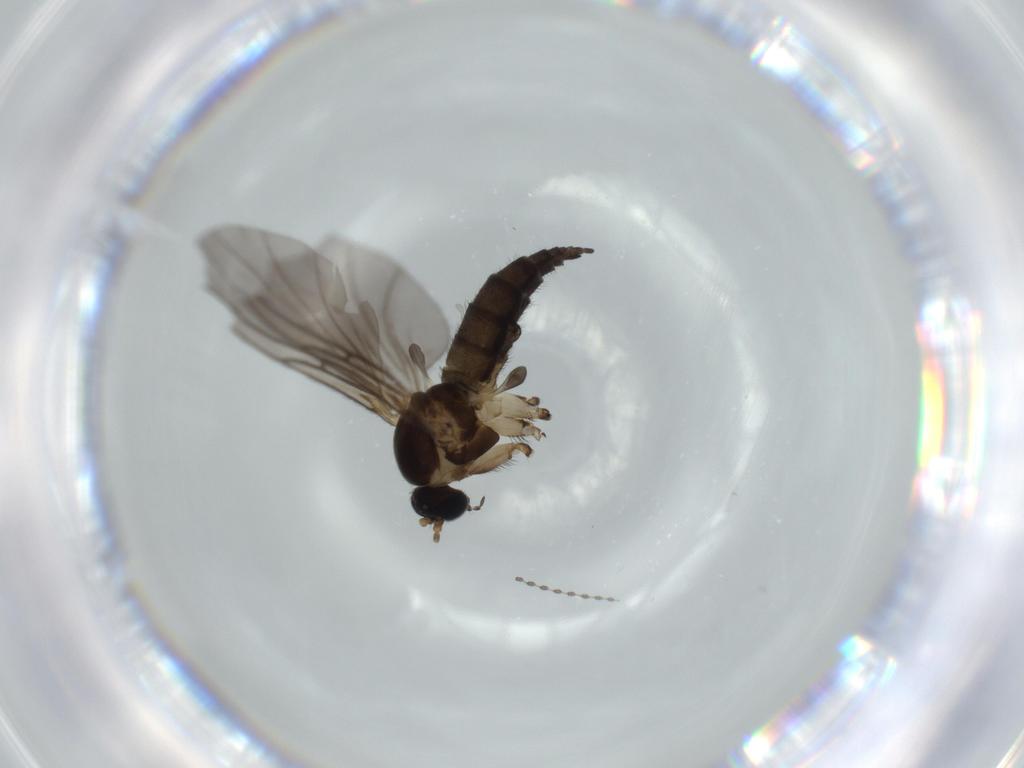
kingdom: Animalia
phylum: Arthropoda
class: Insecta
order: Diptera
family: Sciaridae
